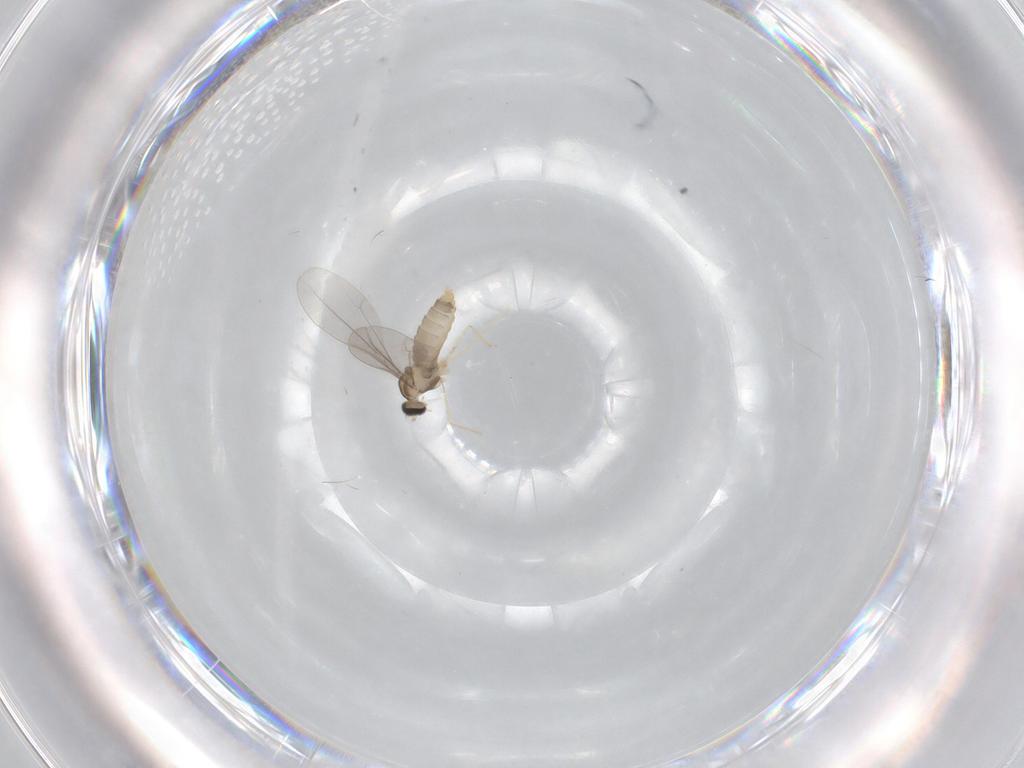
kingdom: Animalia
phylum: Arthropoda
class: Insecta
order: Diptera
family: Cecidomyiidae
